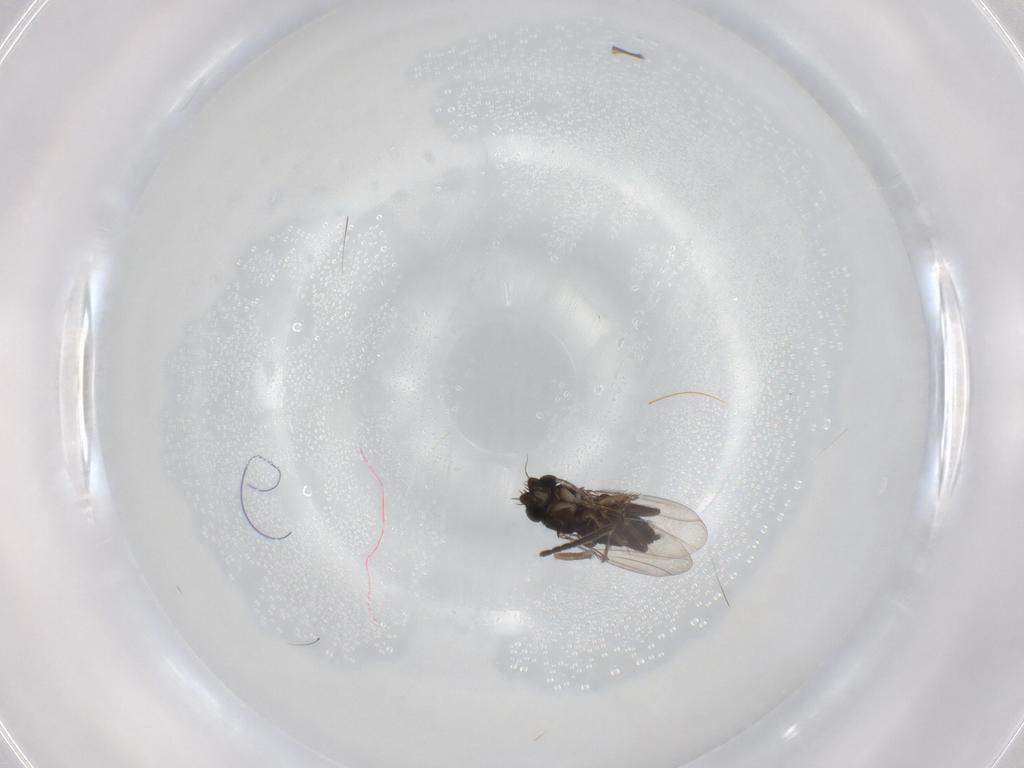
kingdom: Animalia
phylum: Arthropoda
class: Insecta
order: Diptera
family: Sciaridae
